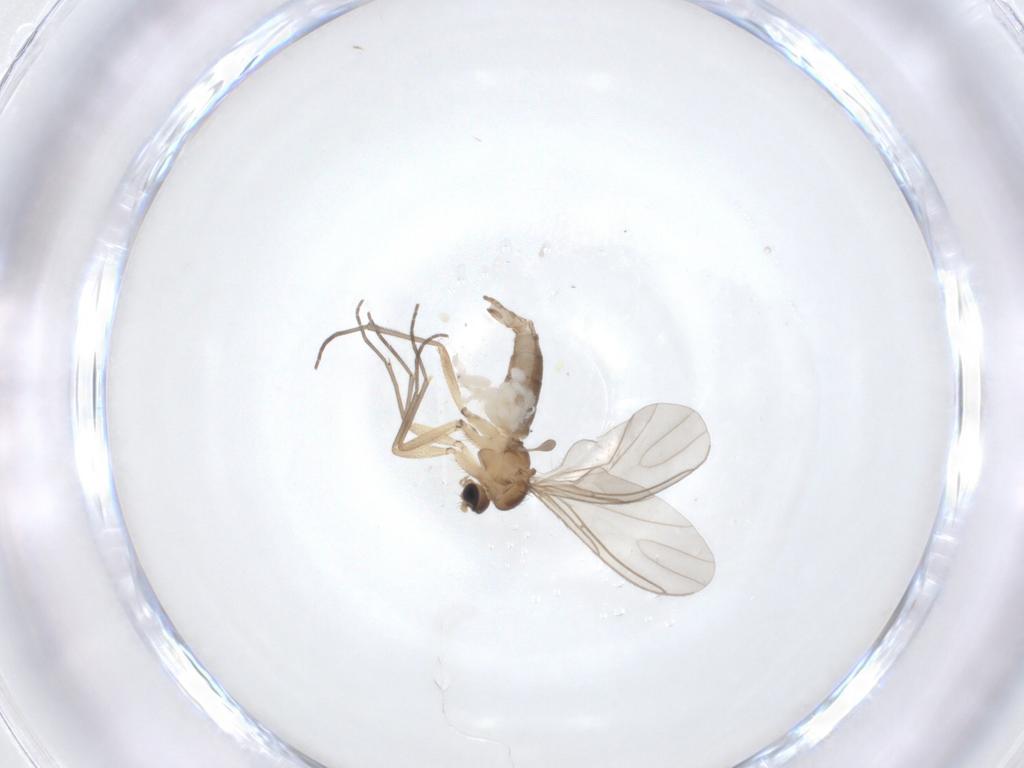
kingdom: Animalia
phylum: Arthropoda
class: Insecta
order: Diptera
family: Sciaridae
